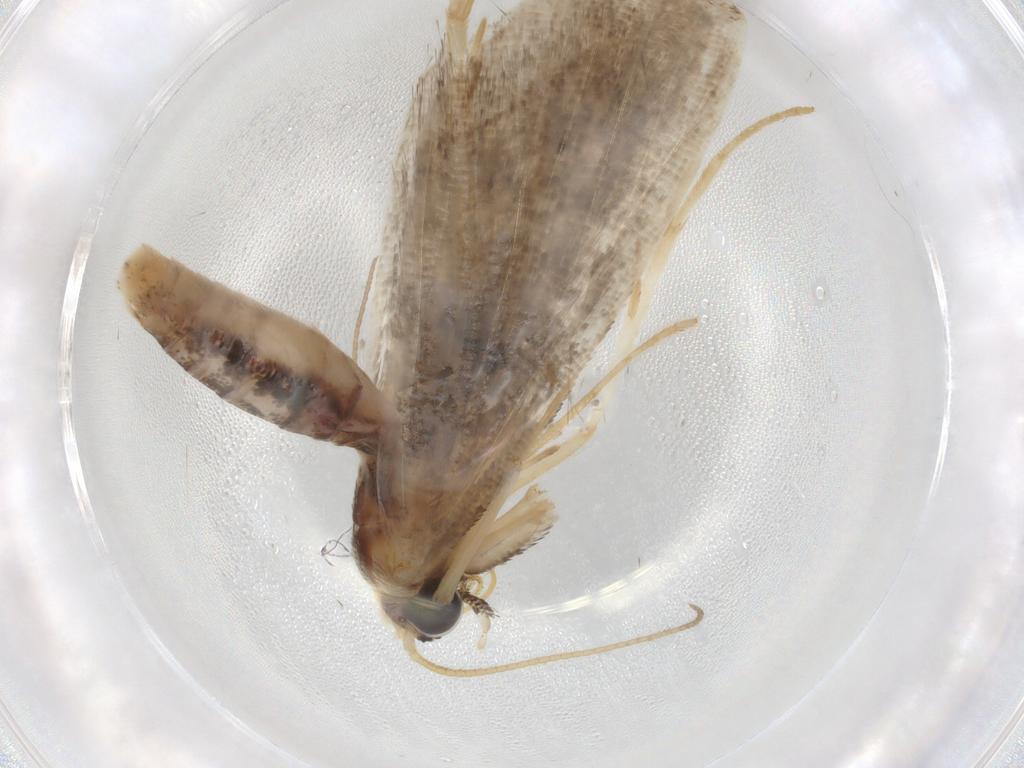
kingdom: Animalia
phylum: Arthropoda
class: Insecta
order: Lepidoptera
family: Noctuidae
